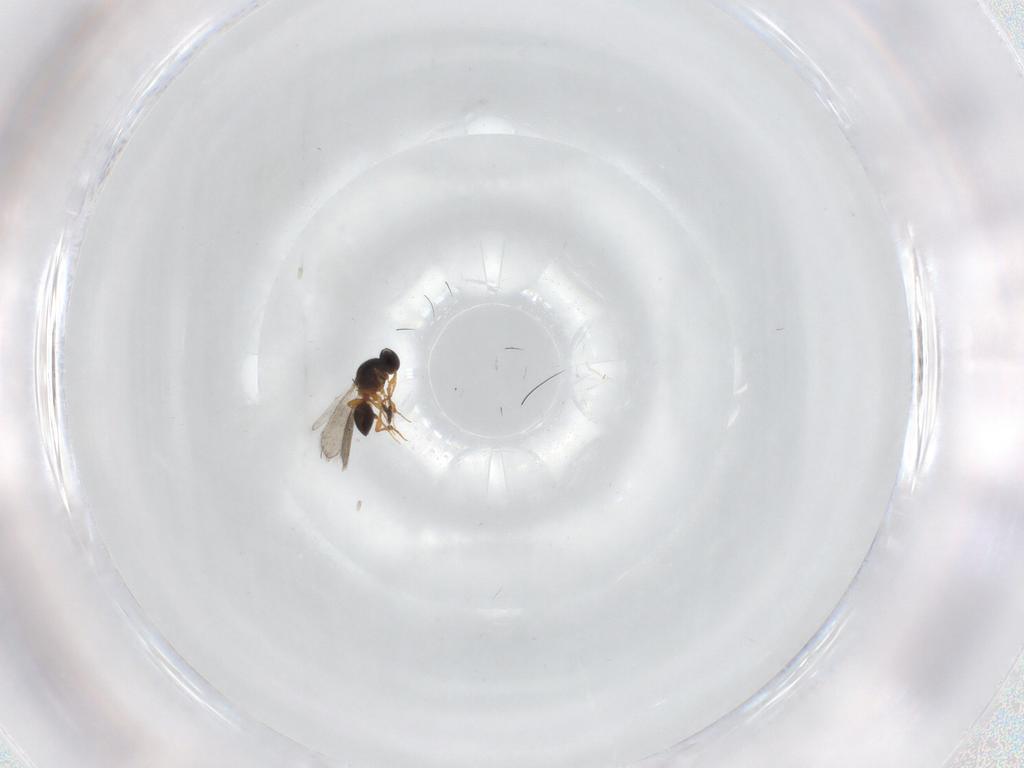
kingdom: Animalia
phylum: Arthropoda
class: Insecta
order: Hymenoptera
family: Platygastridae
